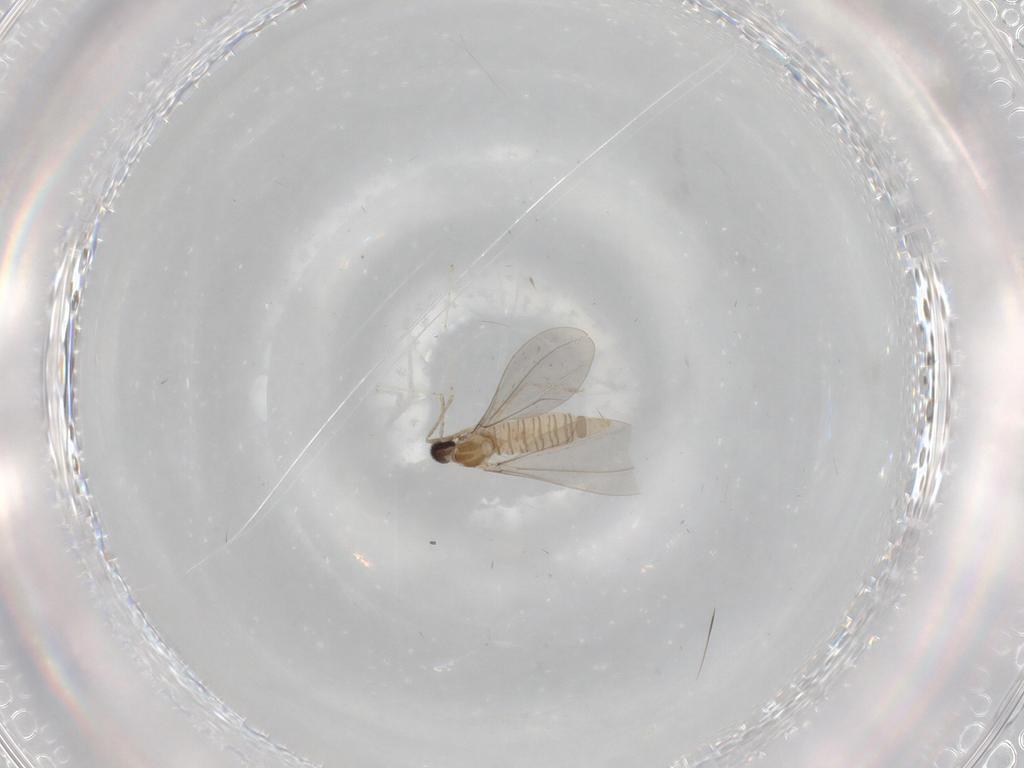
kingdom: Animalia
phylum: Arthropoda
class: Insecta
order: Diptera
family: Cecidomyiidae
